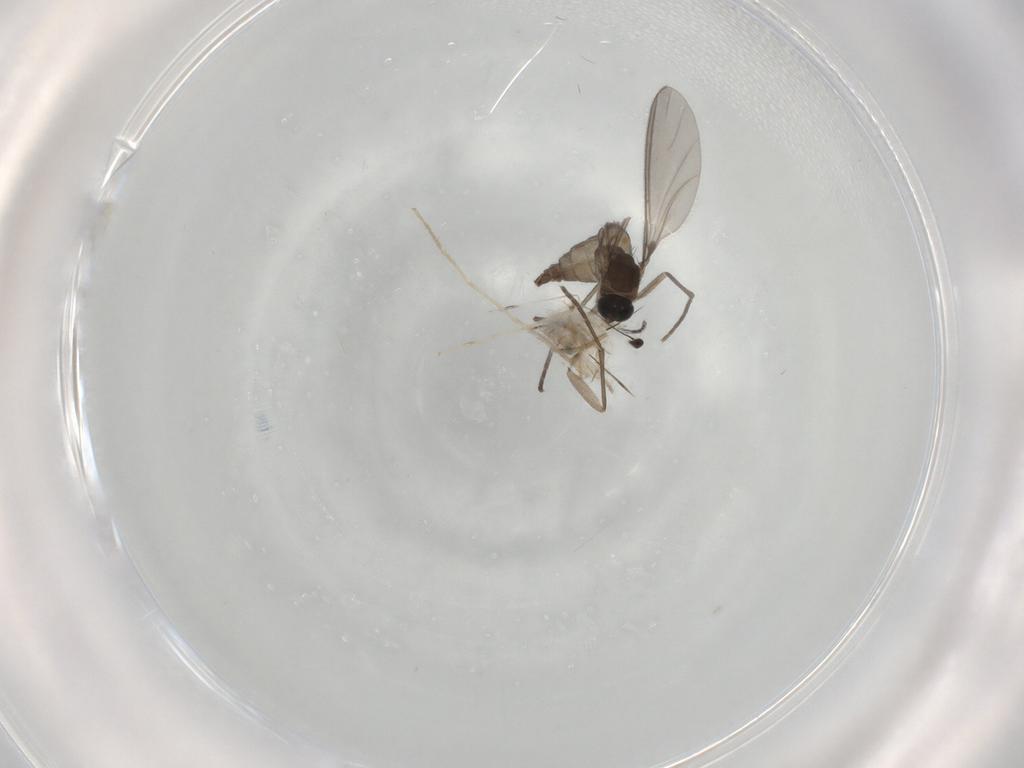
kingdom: Animalia
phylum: Arthropoda
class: Insecta
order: Diptera
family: Sciaridae
